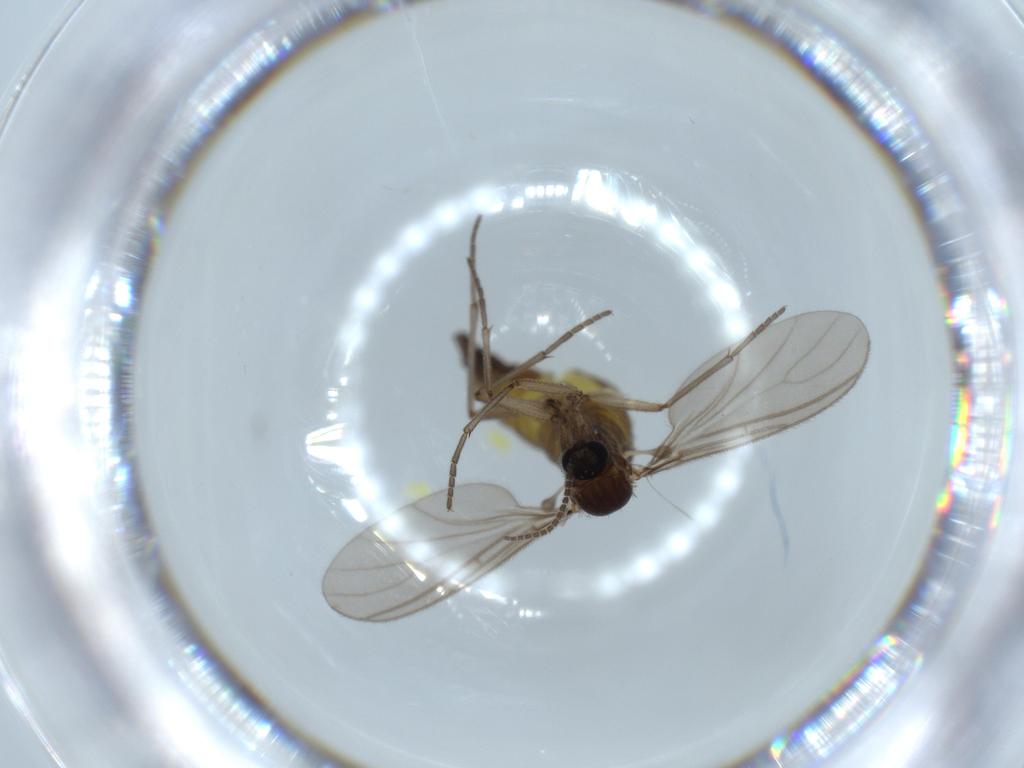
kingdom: Animalia
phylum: Arthropoda
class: Insecta
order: Diptera
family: Sciaridae
